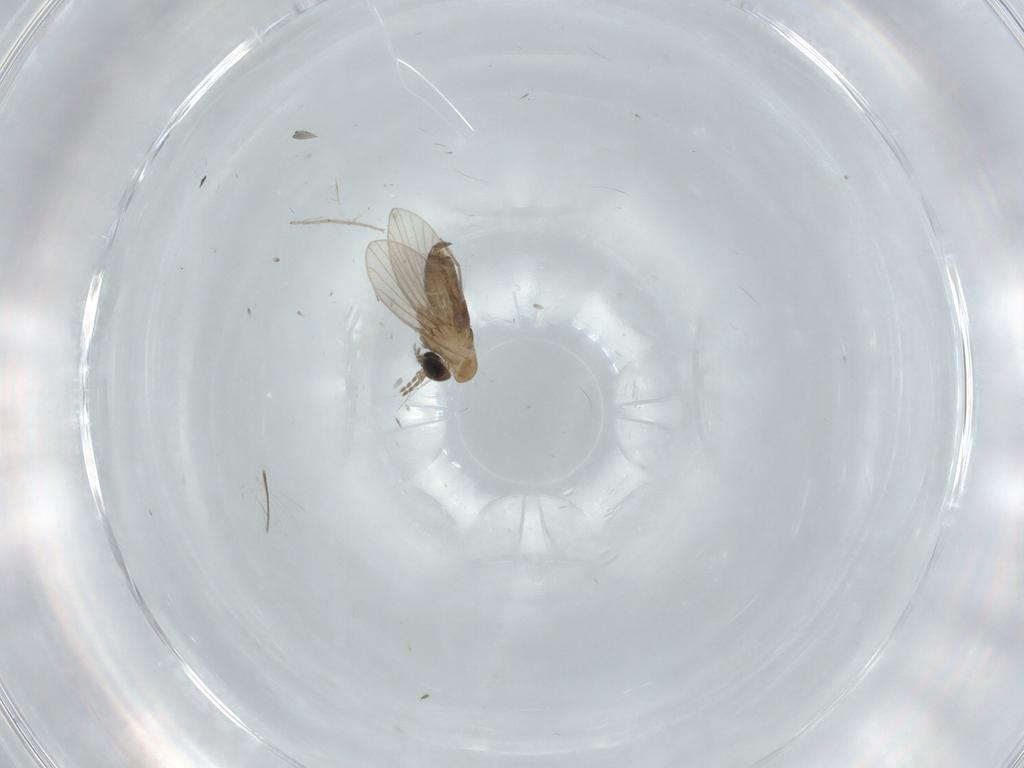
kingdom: Animalia
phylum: Arthropoda
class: Insecta
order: Diptera
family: Psychodidae
